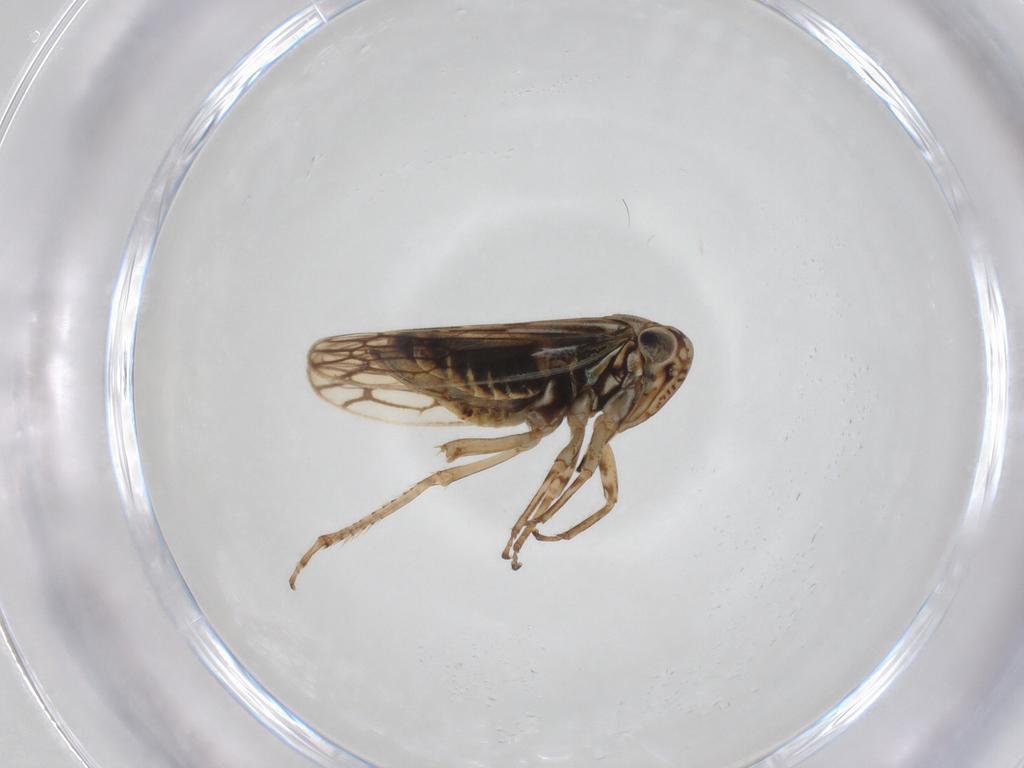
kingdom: Animalia
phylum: Arthropoda
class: Insecta
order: Hemiptera
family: Cicadellidae
